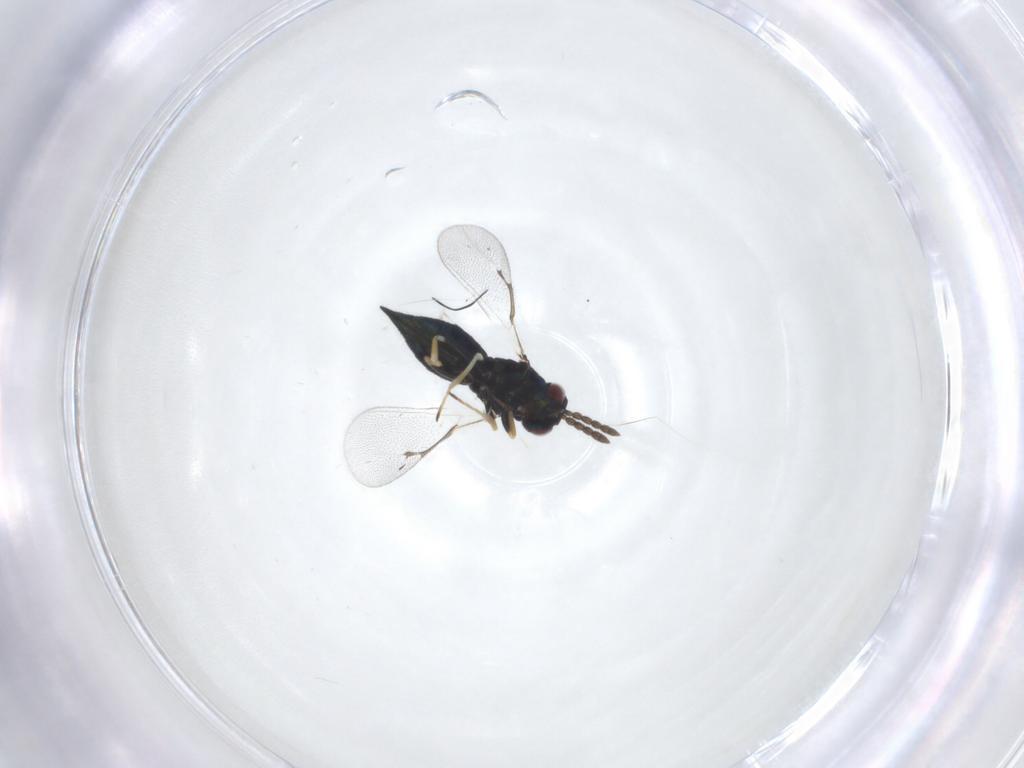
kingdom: Animalia
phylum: Arthropoda
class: Insecta
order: Hymenoptera
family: Eulophidae
